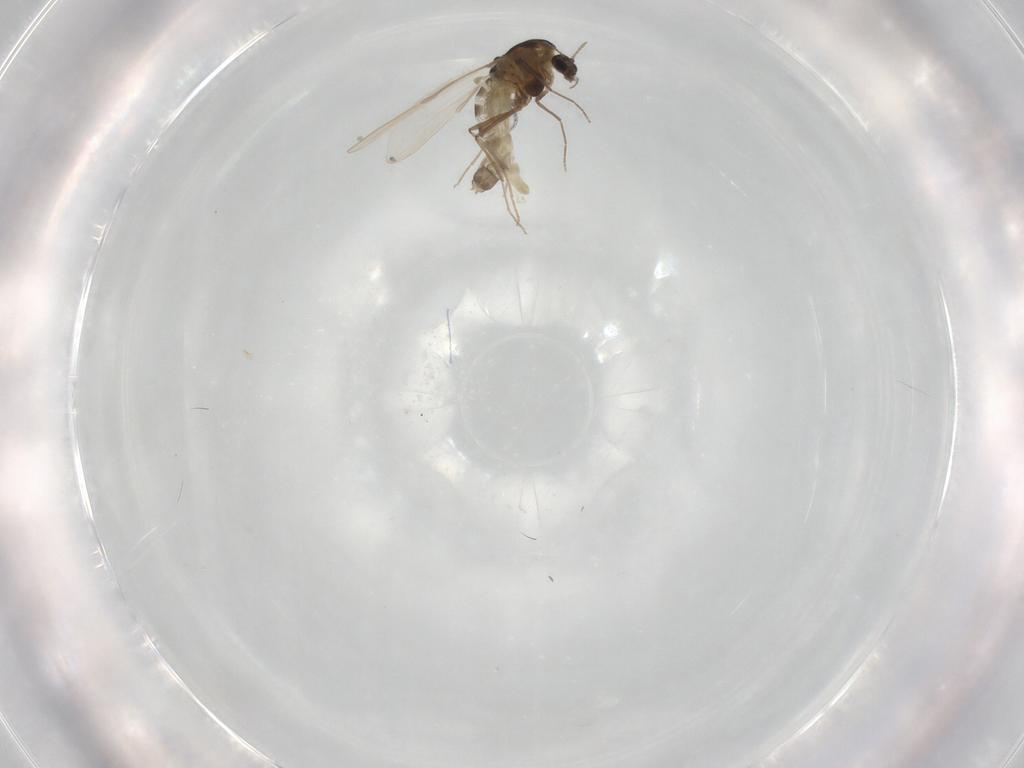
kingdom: Animalia
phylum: Arthropoda
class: Insecta
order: Diptera
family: Chironomidae
